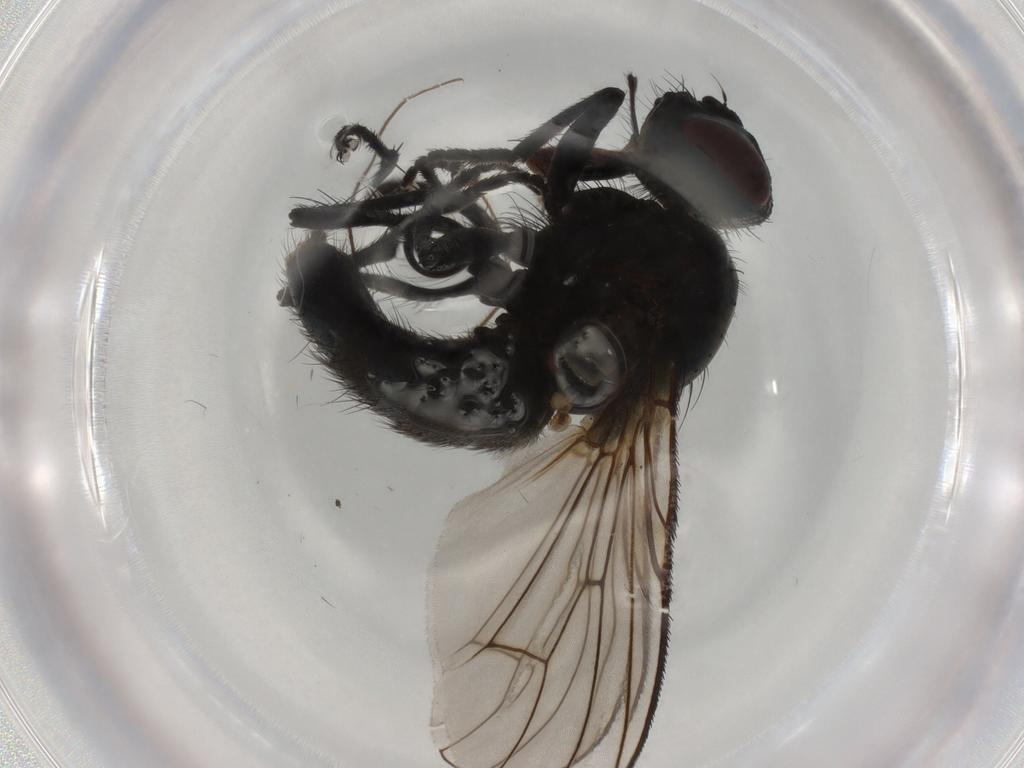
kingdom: Animalia
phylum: Arthropoda
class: Insecta
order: Diptera
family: Muscidae
